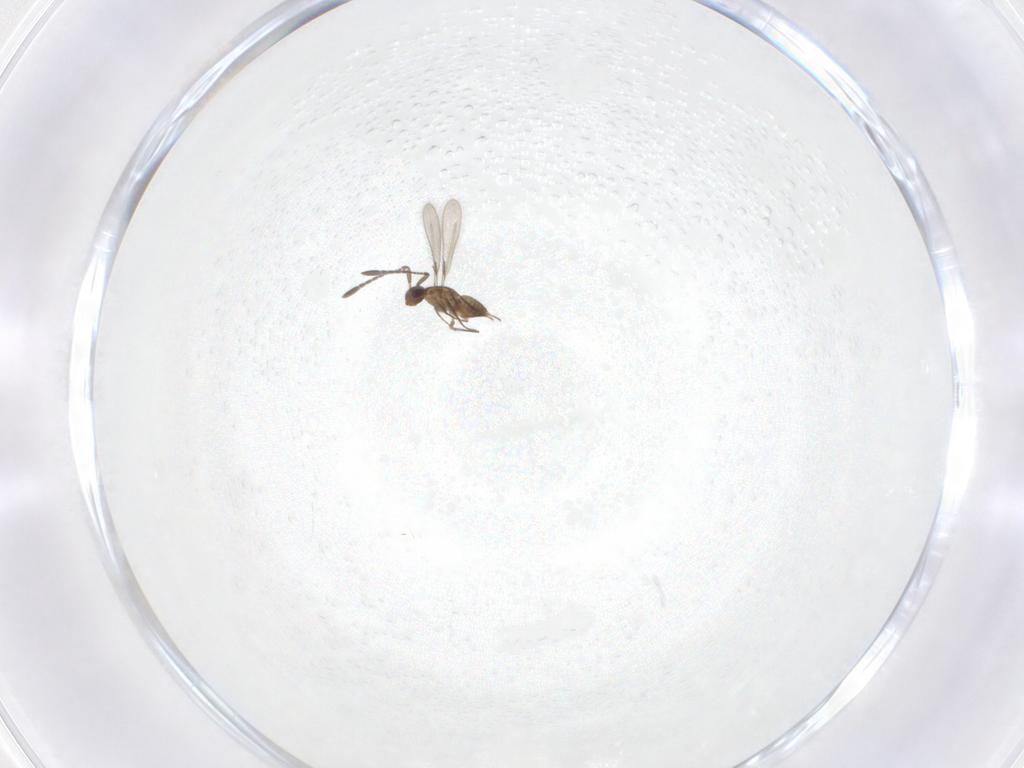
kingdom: Animalia
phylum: Arthropoda
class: Insecta
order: Hymenoptera
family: Mymaridae
